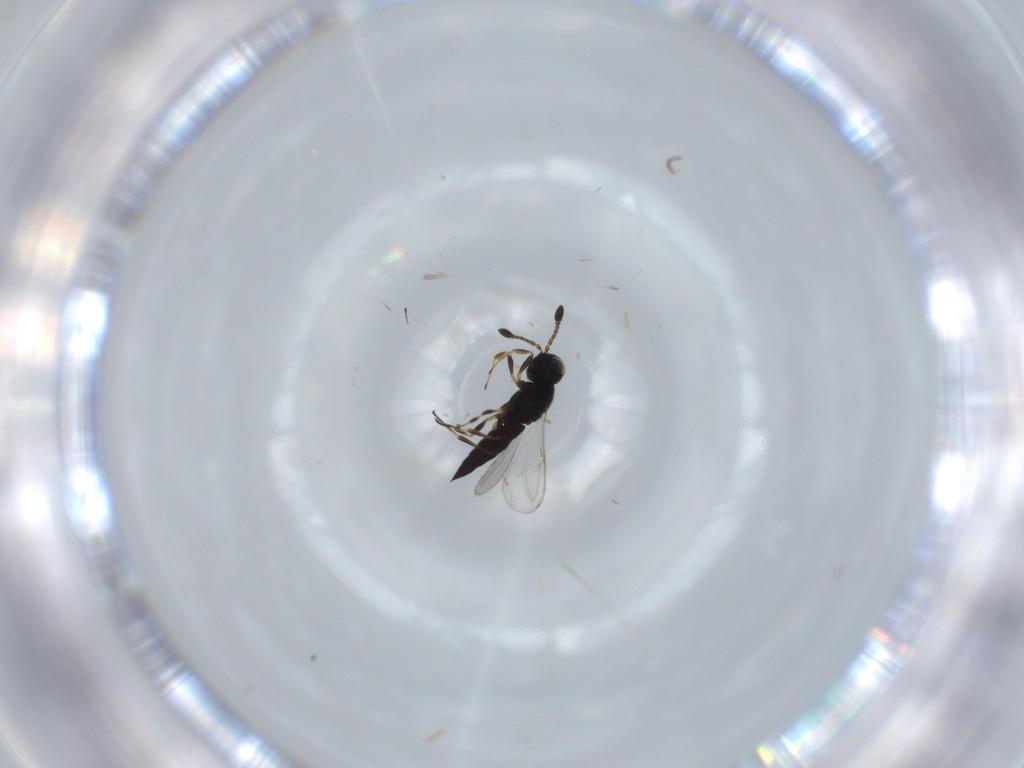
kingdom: Animalia
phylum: Arthropoda
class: Insecta
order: Hymenoptera
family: Scelionidae
